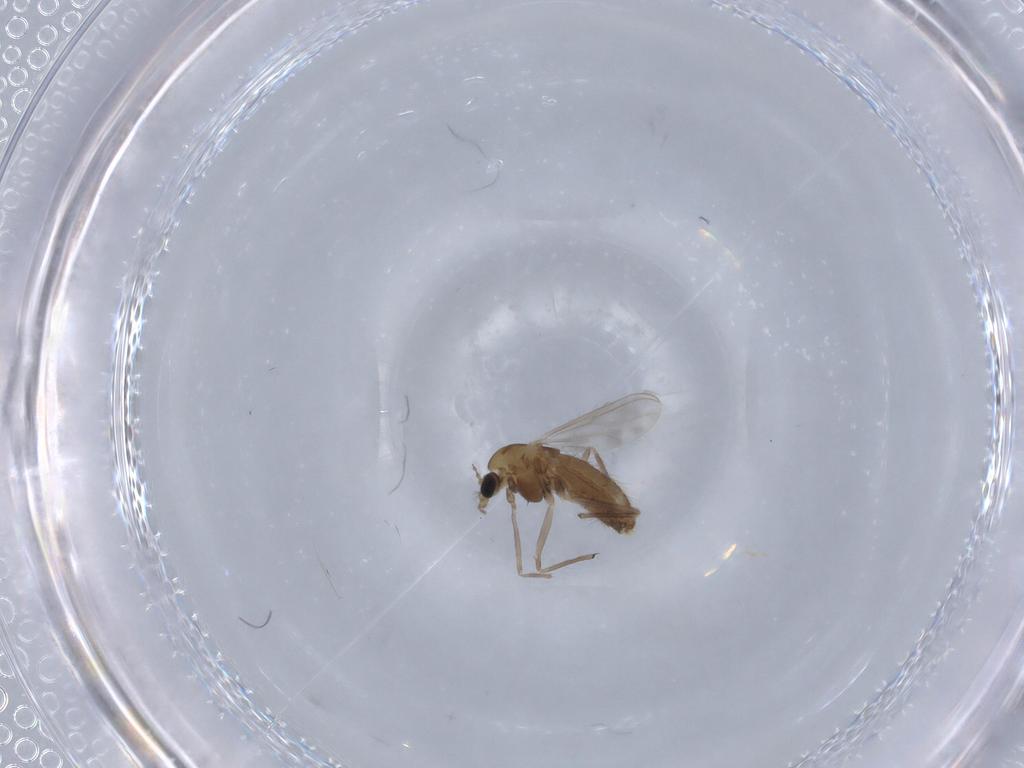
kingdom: Animalia
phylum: Arthropoda
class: Insecta
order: Diptera
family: Chironomidae
